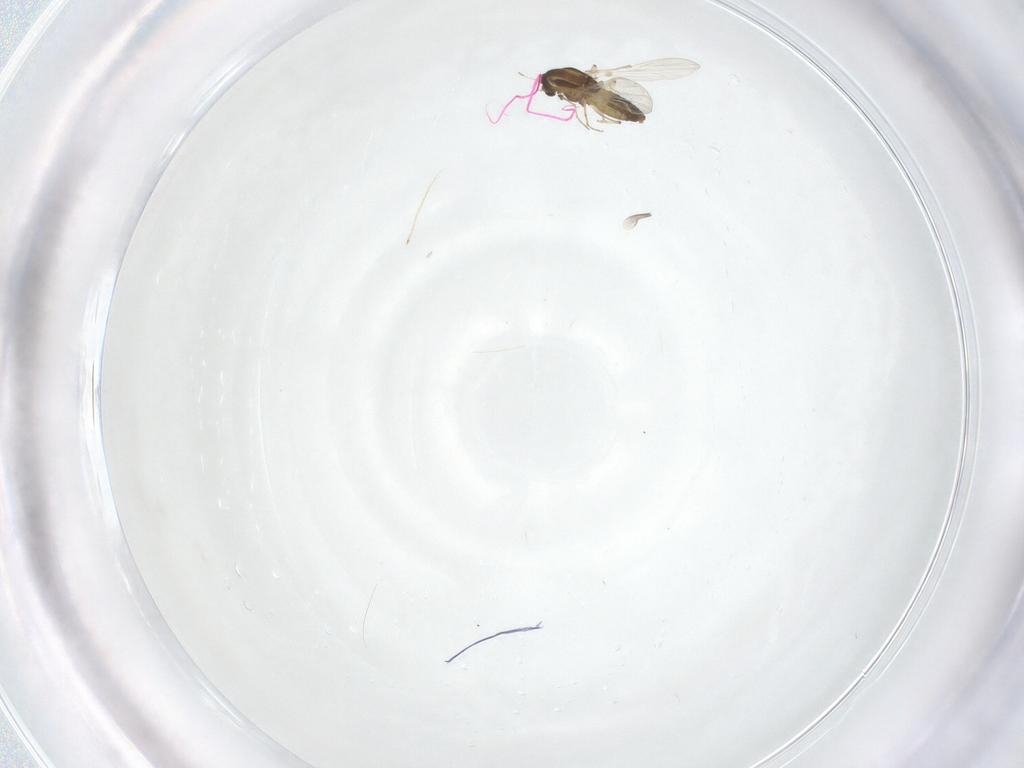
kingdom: Animalia
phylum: Arthropoda
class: Insecta
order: Diptera
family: Chironomidae
